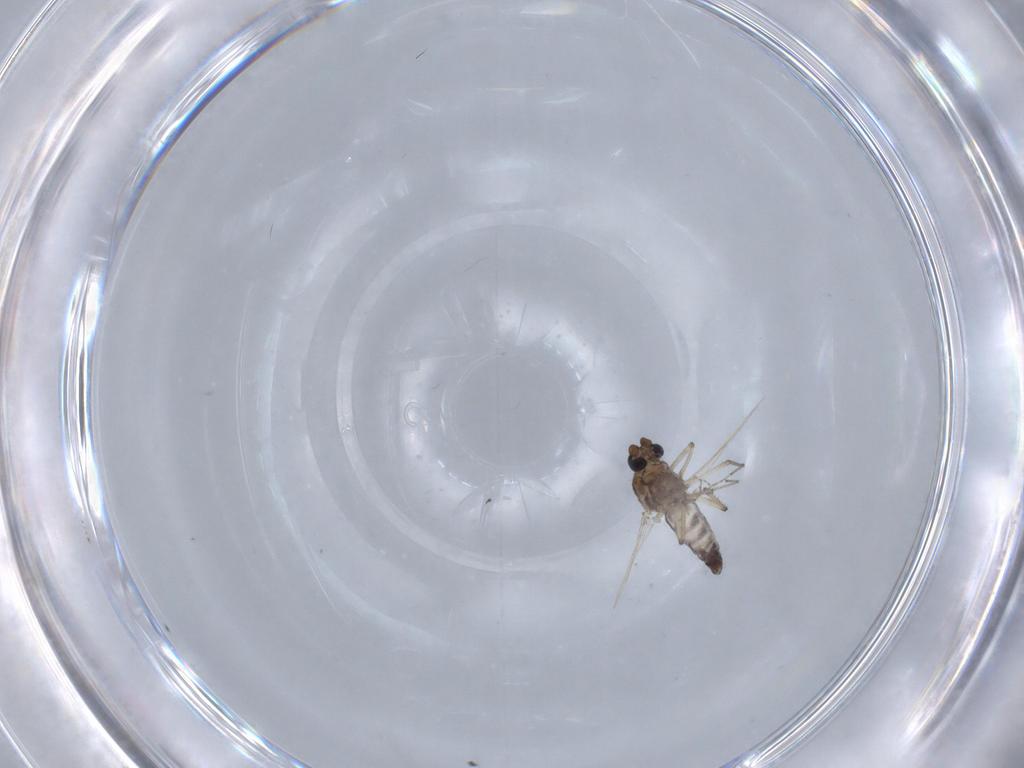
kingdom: Animalia
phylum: Arthropoda
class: Insecta
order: Diptera
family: Ceratopogonidae
